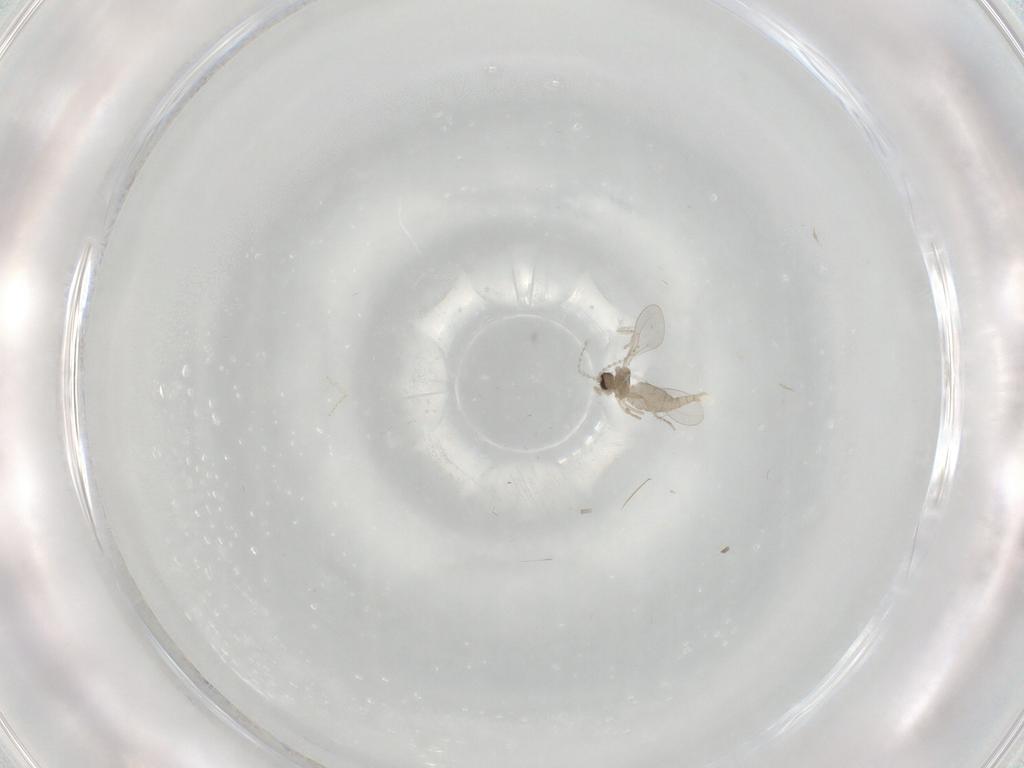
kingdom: Animalia
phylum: Arthropoda
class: Insecta
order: Diptera
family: Cecidomyiidae
